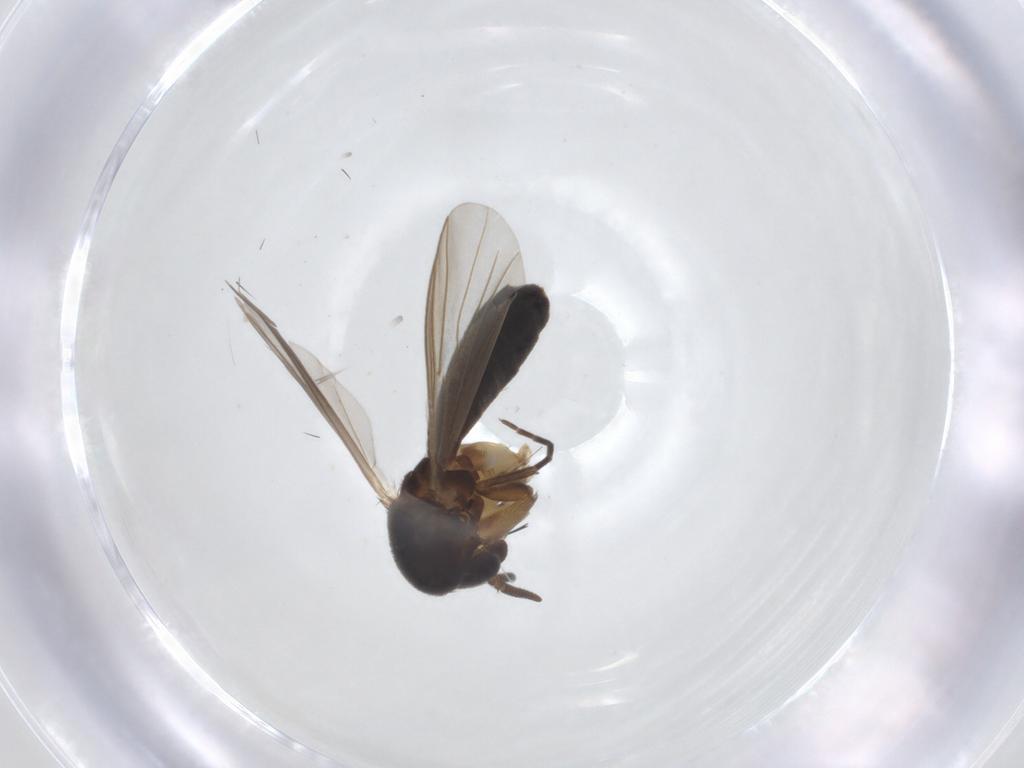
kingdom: Animalia
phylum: Arthropoda
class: Insecta
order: Diptera
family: Mycetophilidae
